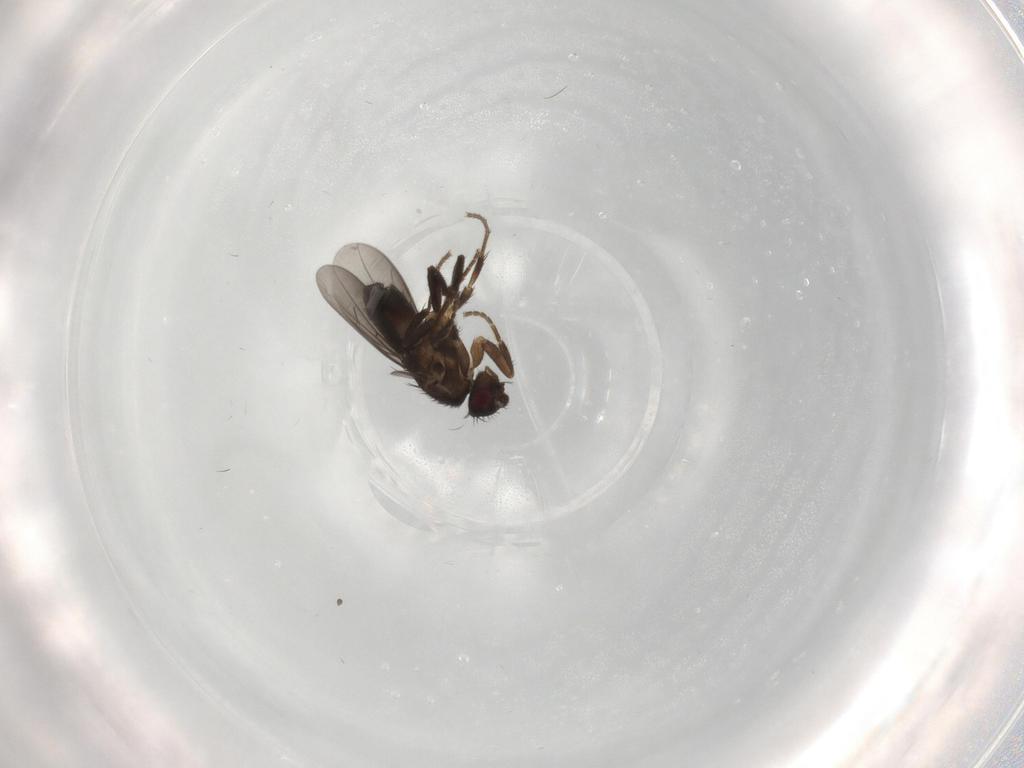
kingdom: Animalia
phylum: Arthropoda
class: Insecta
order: Diptera
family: Sphaeroceridae
